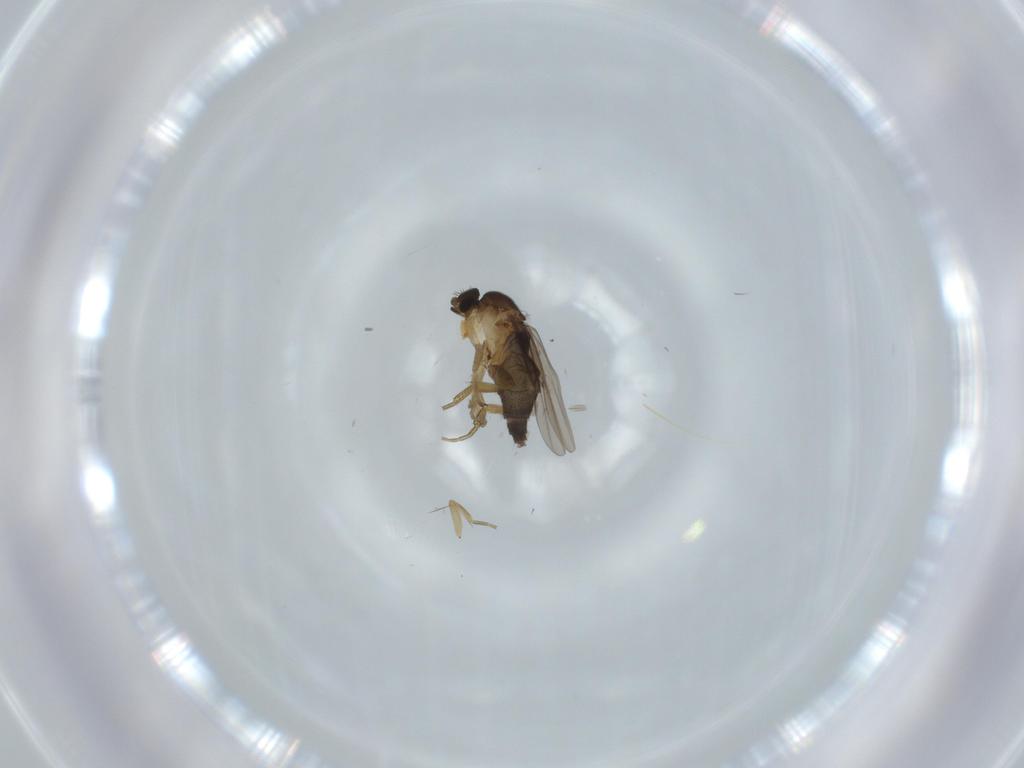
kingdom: Animalia
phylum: Arthropoda
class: Insecta
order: Diptera
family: Phoridae
